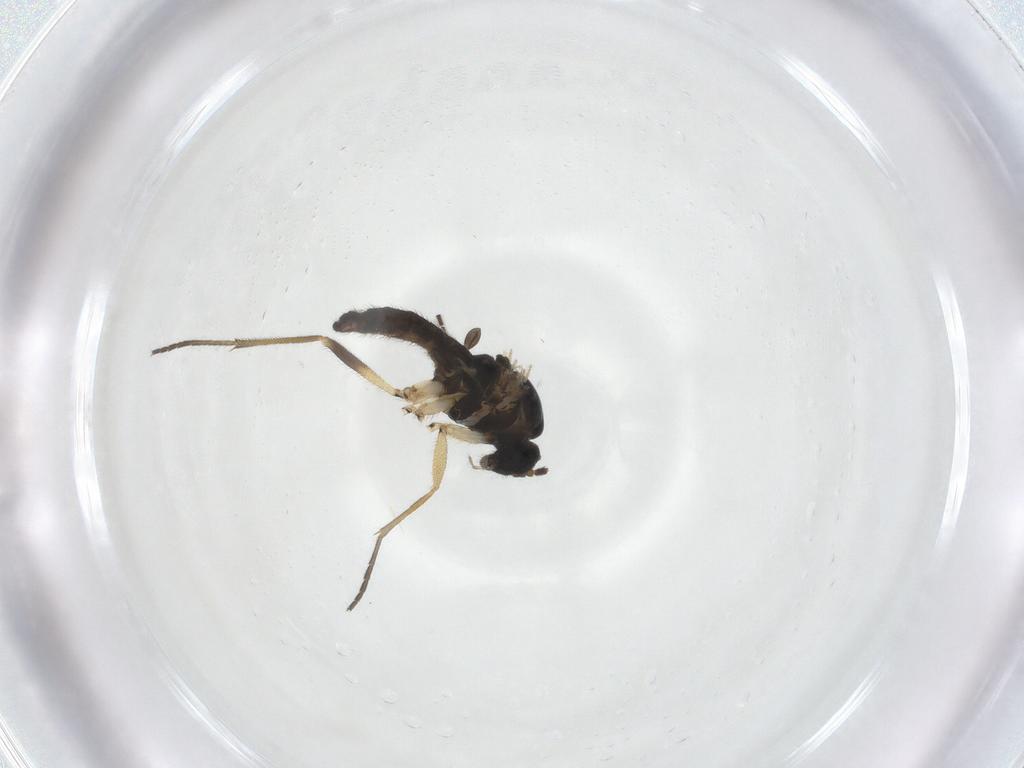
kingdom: Animalia
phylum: Arthropoda
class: Insecta
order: Diptera
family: Sciaridae
